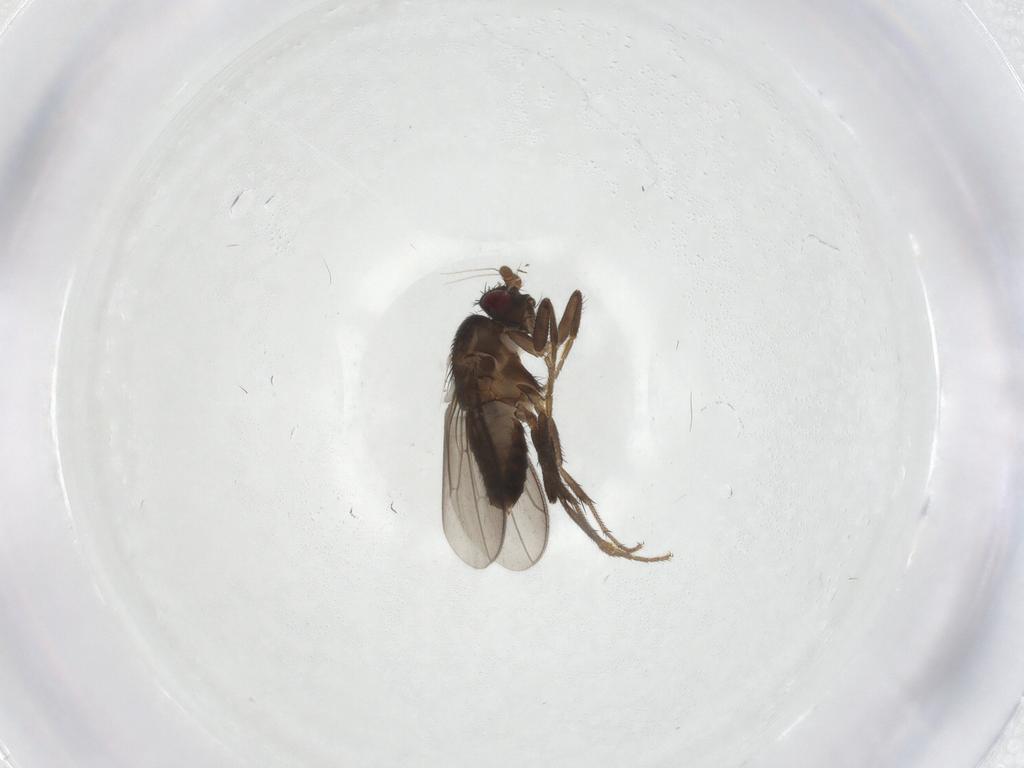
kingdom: Animalia
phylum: Arthropoda
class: Insecta
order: Diptera
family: Sphaeroceridae
